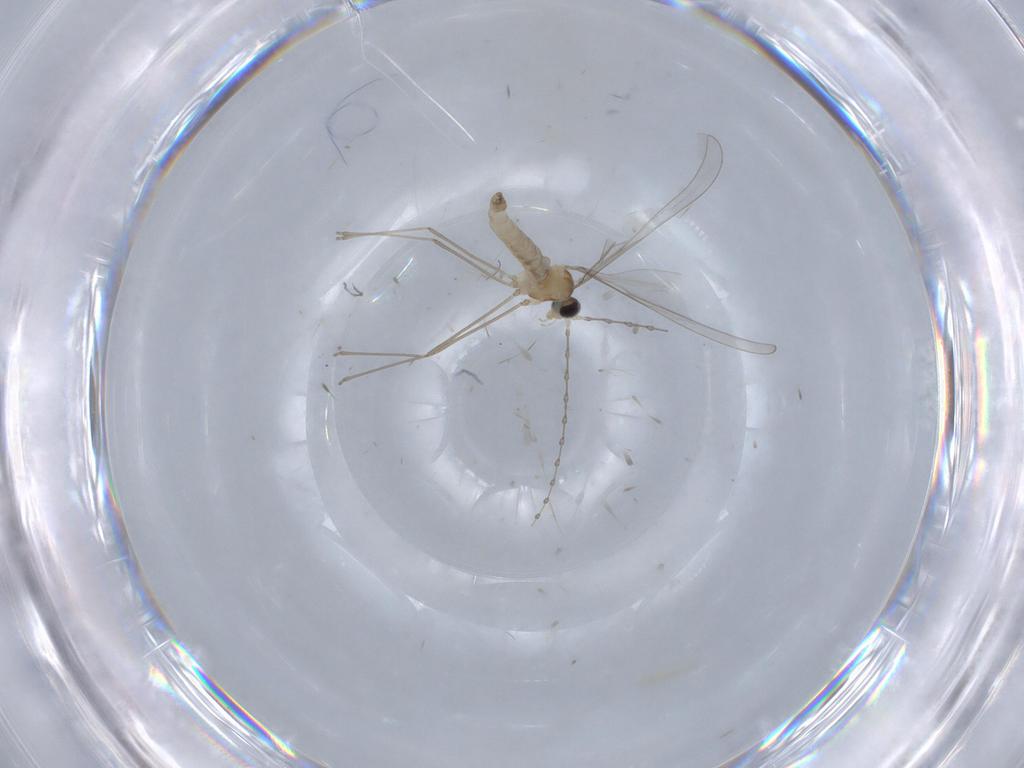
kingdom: Animalia
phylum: Arthropoda
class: Insecta
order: Diptera
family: Cecidomyiidae
